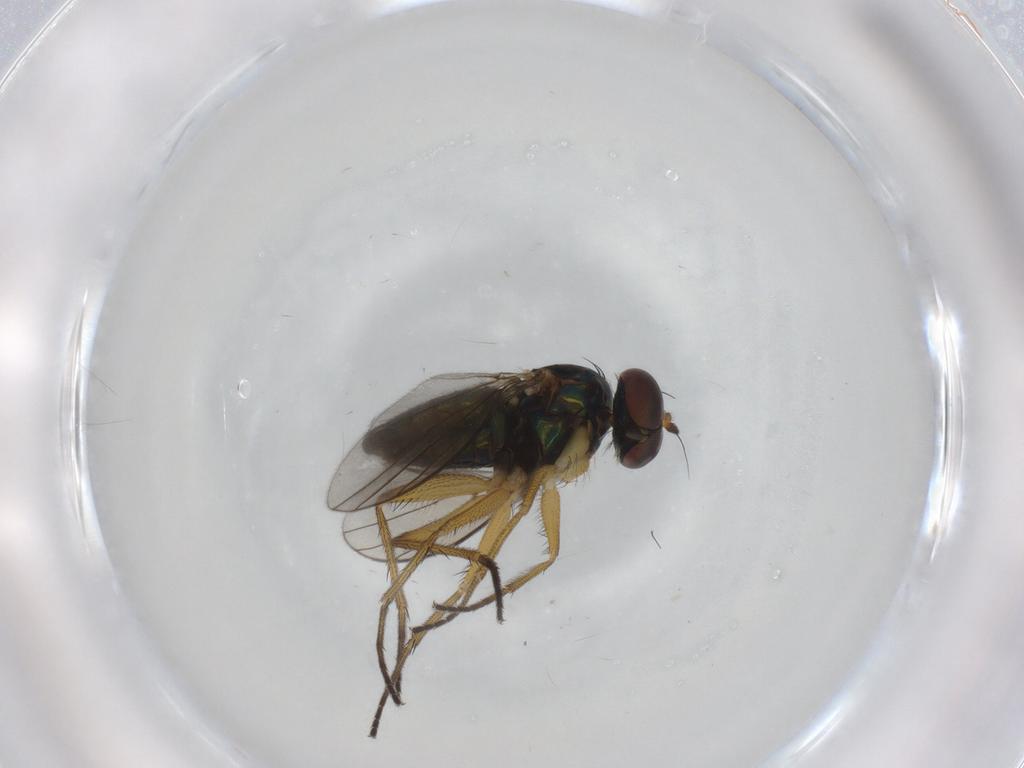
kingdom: Animalia
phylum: Arthropoda
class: Insecta
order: Diptera
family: Dolichopodidae
